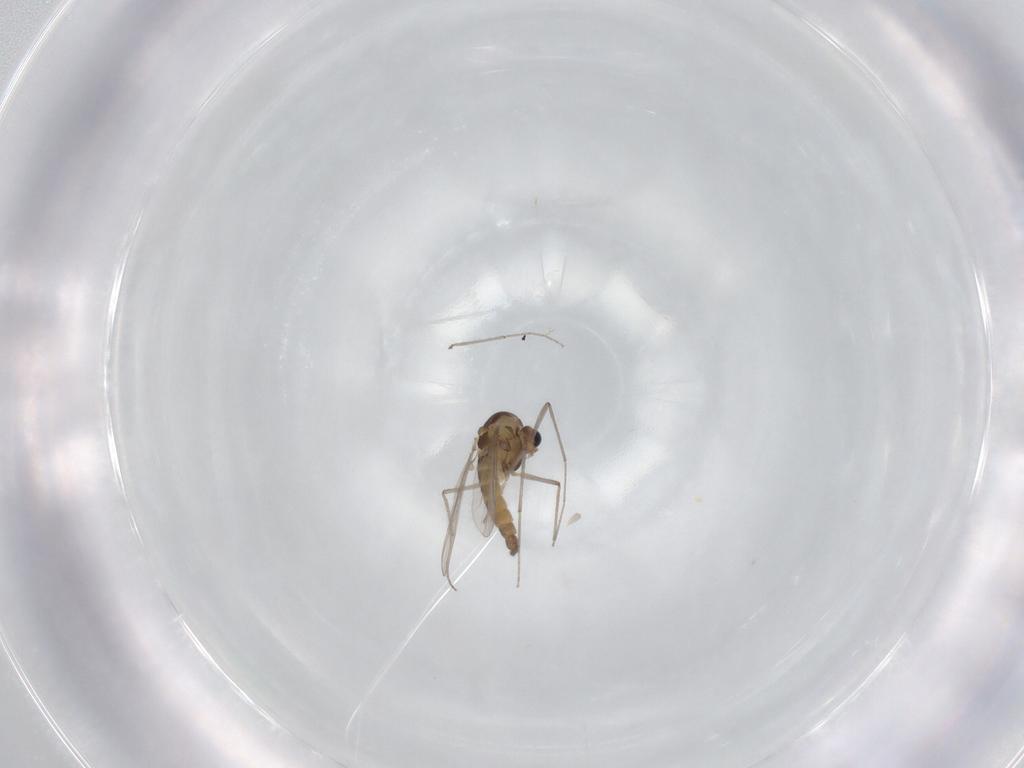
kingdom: Animalia
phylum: Arthropoda
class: Insecta
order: Diptera
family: Chironomidae
